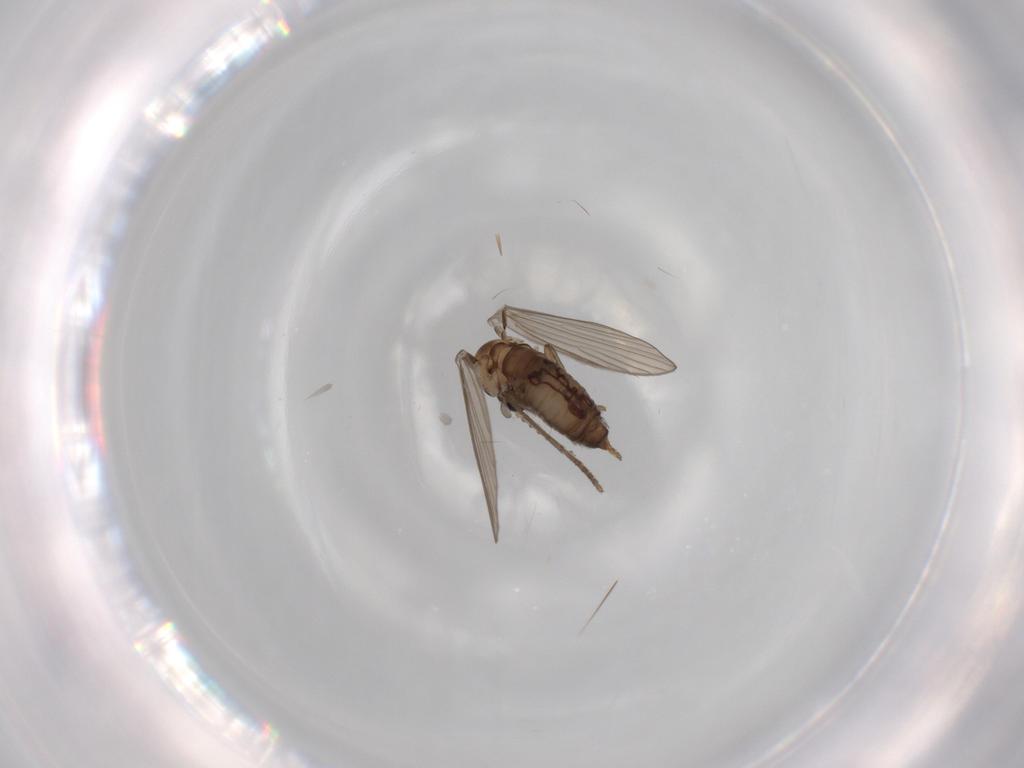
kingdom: Animalia
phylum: Arthropoda
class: Insecta
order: Diptera
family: Psychodidae
